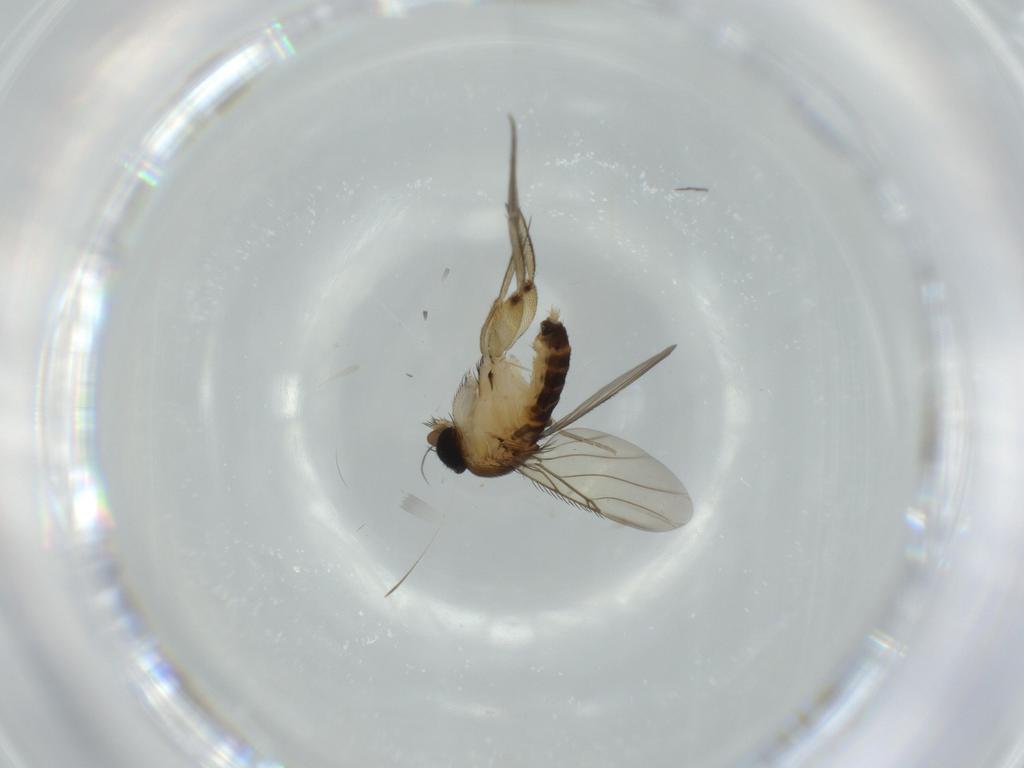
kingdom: Animalia
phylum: Arthropoda
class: Insecta
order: Diptera
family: Phoridae
